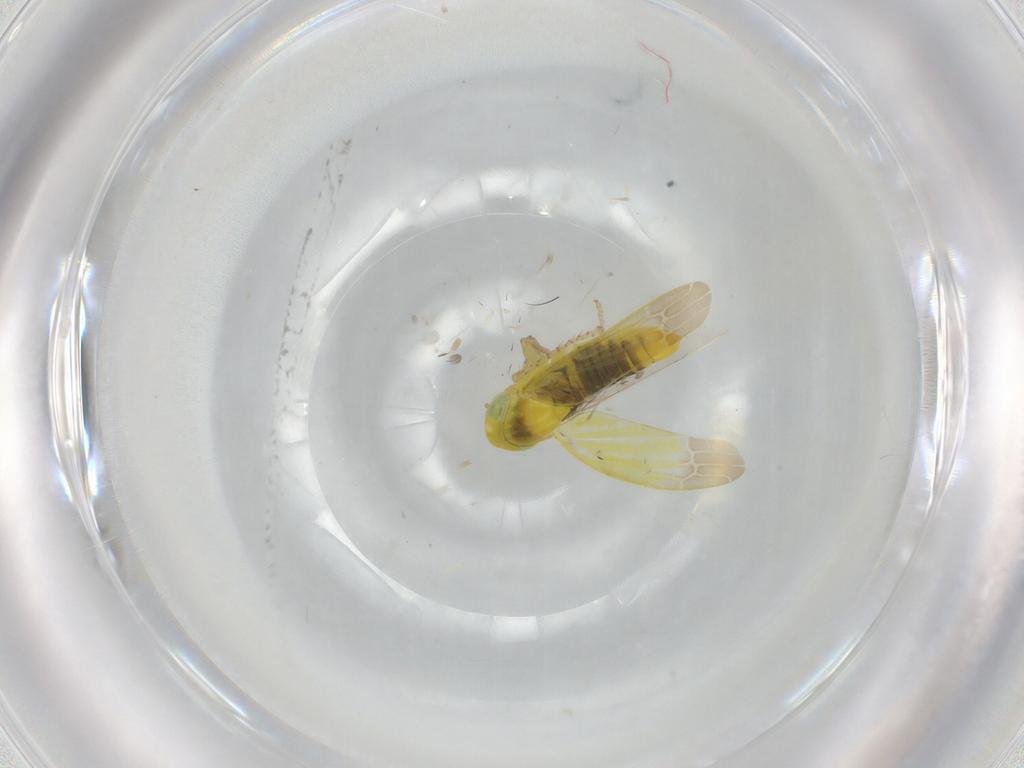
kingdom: Animalia
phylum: Arthropoda
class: Insecta
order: Hemiptera
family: Cicadellidae
